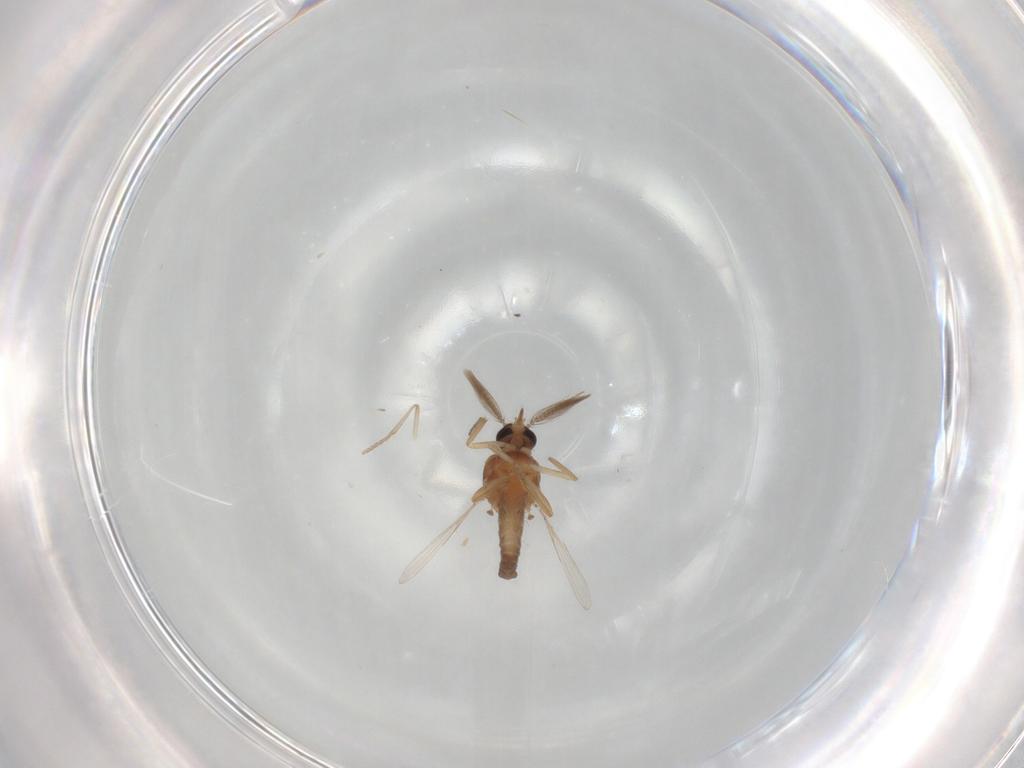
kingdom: Animalia
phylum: Arthropoda
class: Insecta
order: Diptera
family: Ceratopogonidae
